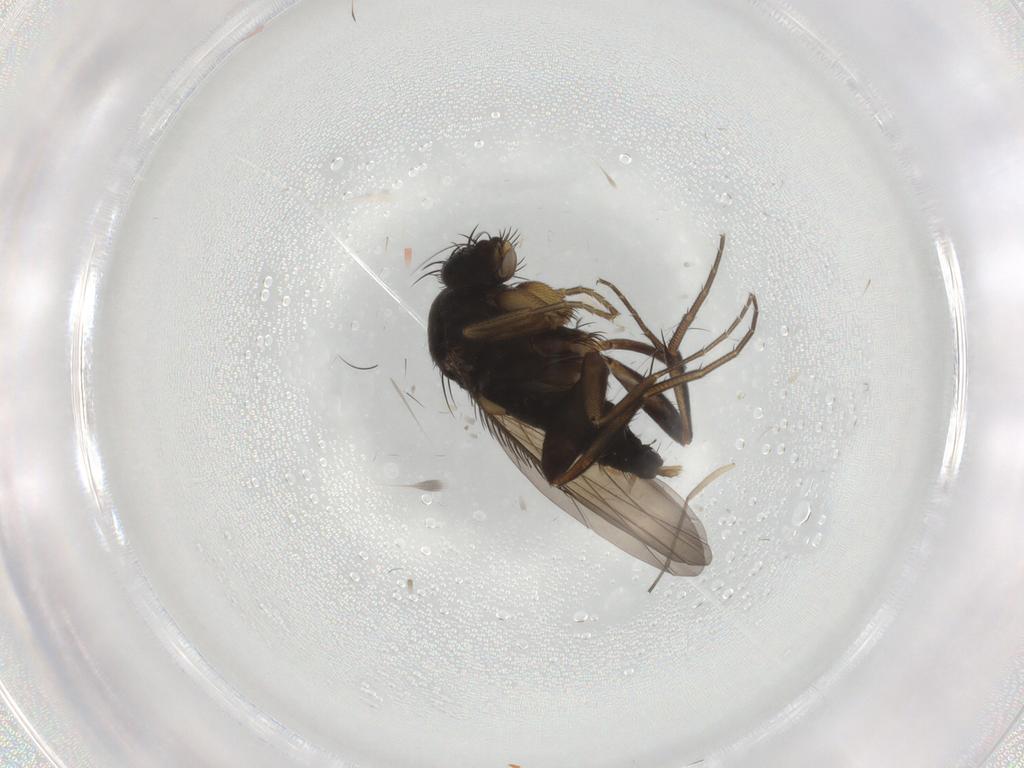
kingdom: Animalia
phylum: Arthropoda
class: Insecta
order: Diptera
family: Phoridae
